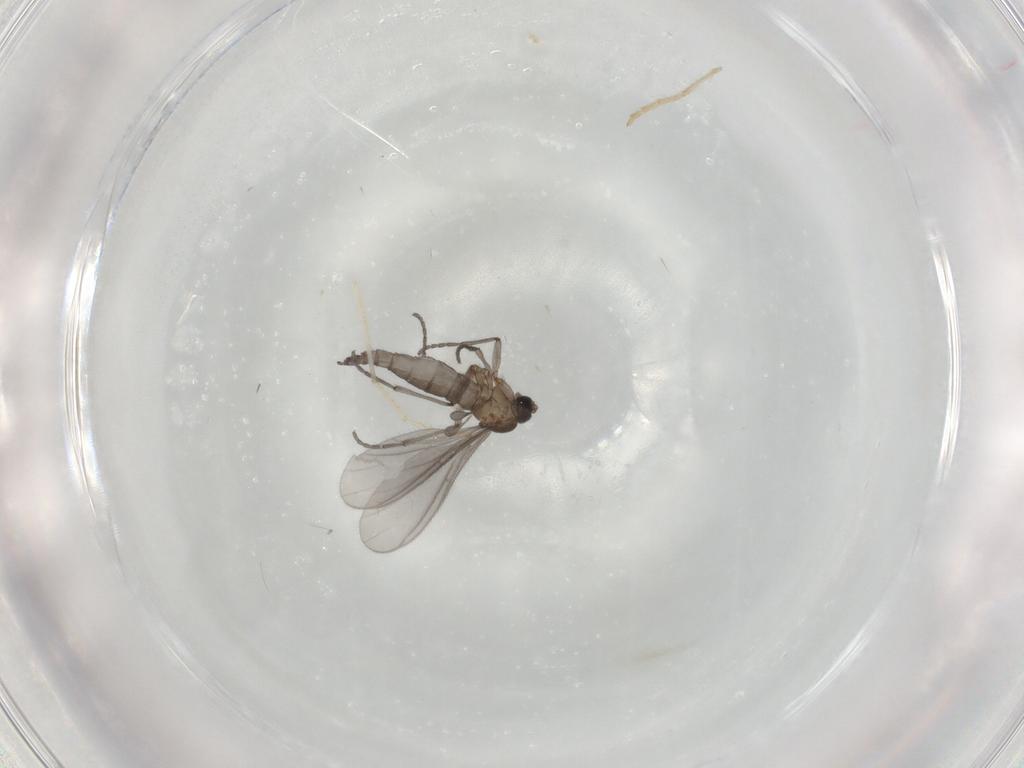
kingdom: Animalia
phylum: Arthropoda
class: Insecta
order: Diptera
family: Sciaridae
